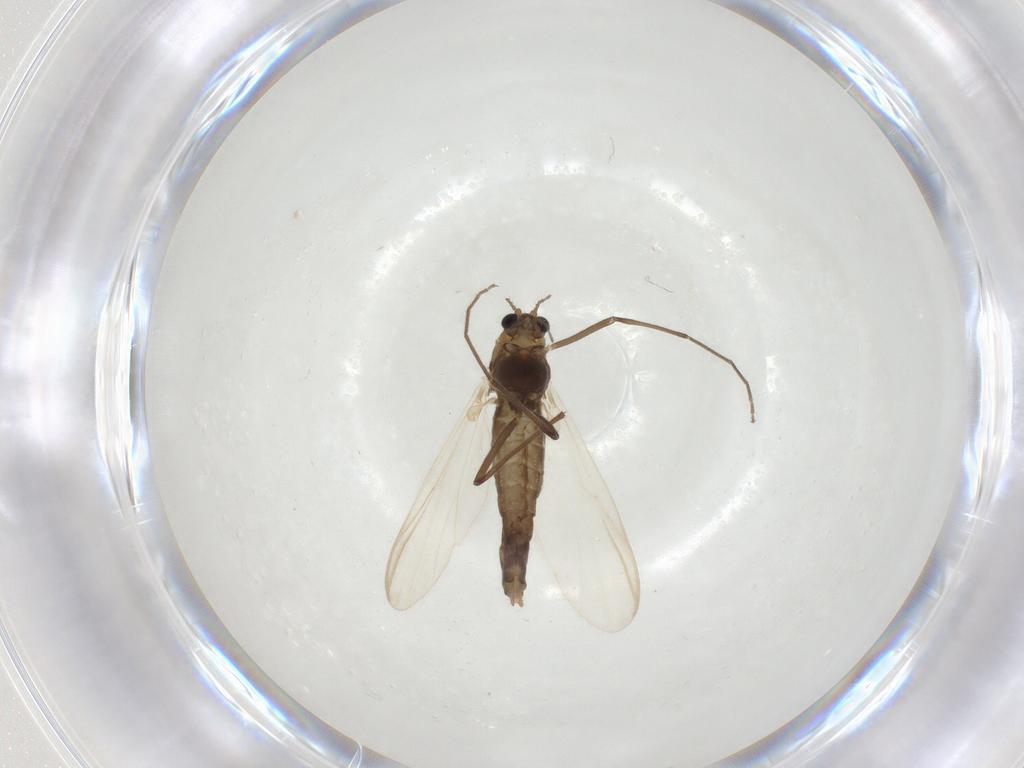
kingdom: Animalia
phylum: Arthropoda
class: Insecta
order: Diptera
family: Chironomidae
